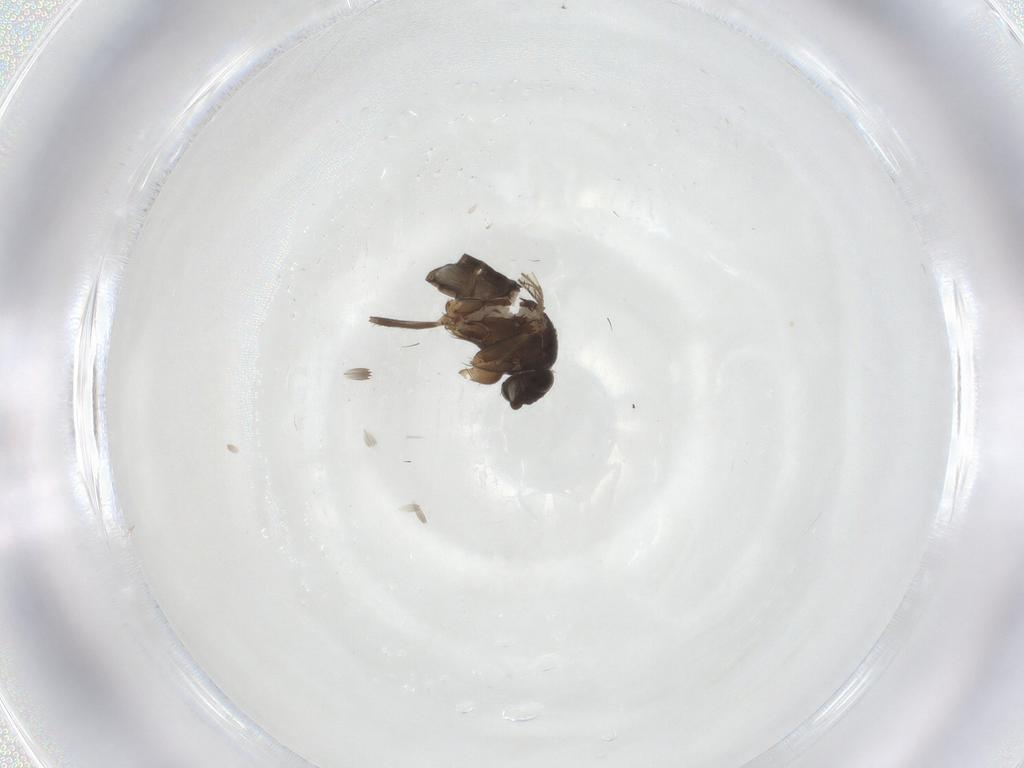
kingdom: Animalia
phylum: Arthropoda
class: Insecta
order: Diptera
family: Phoridae
